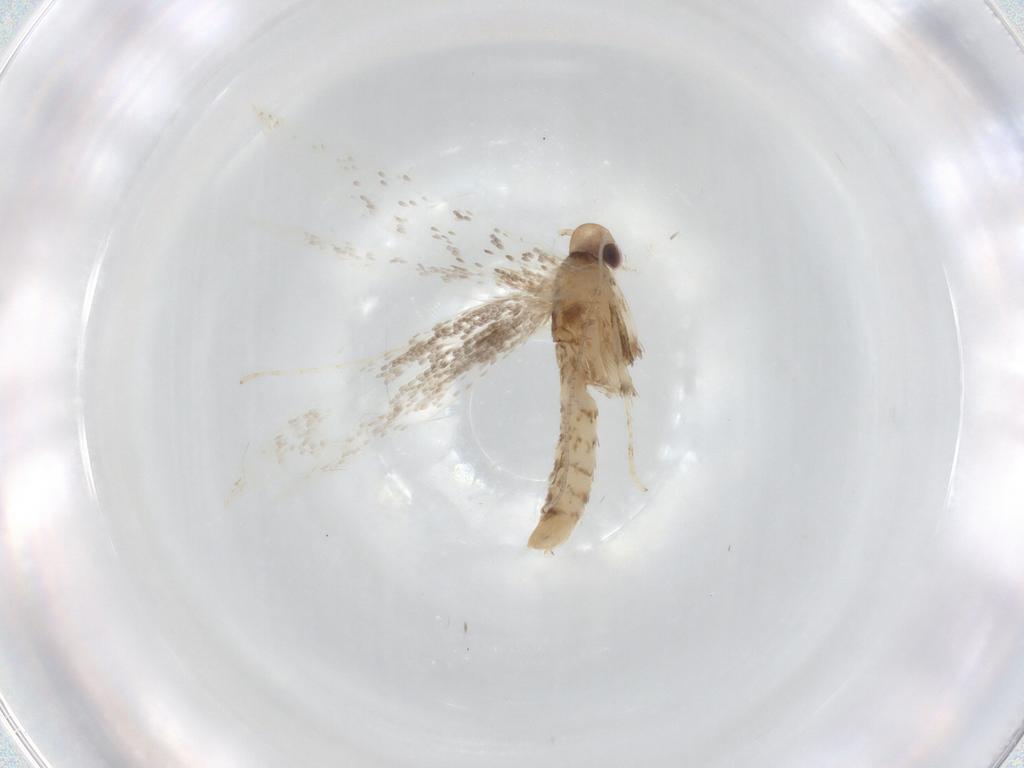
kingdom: Animalia
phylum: Arthropoda
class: Insecta
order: Lepidoptera
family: Gracillariidae
